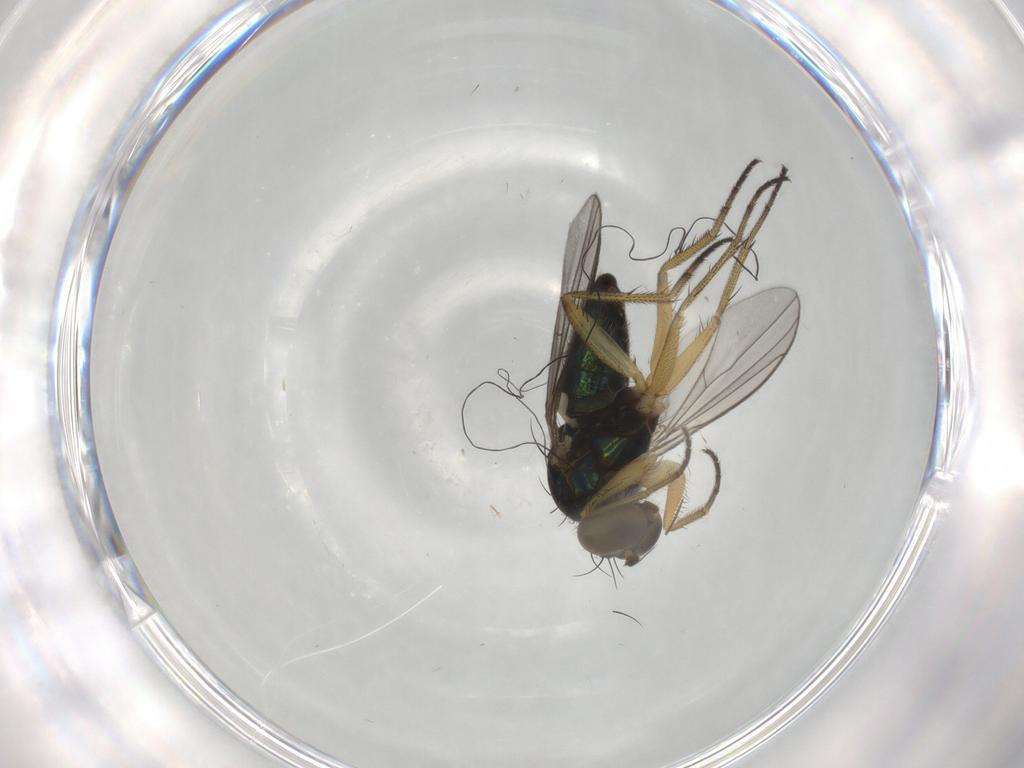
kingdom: Animalia
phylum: Arthropoda
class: Insecta
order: Diptera
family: Dolichopodidae
